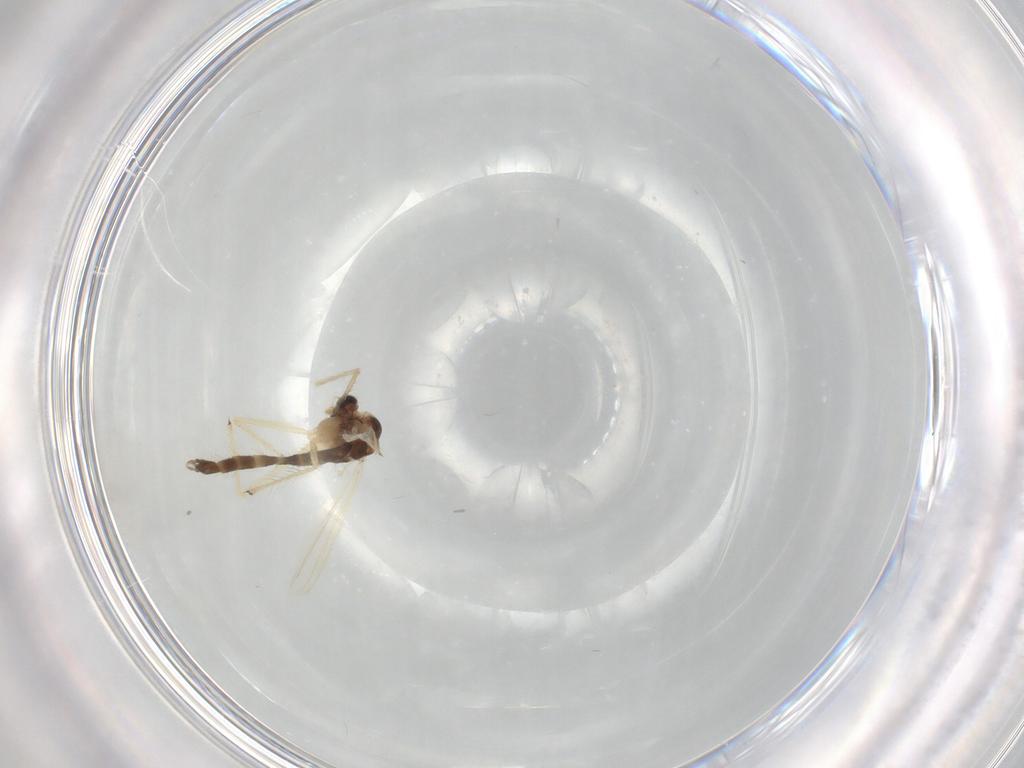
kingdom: Animalia
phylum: Arthropoda
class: Insecta
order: Diptera
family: Chironomidae
